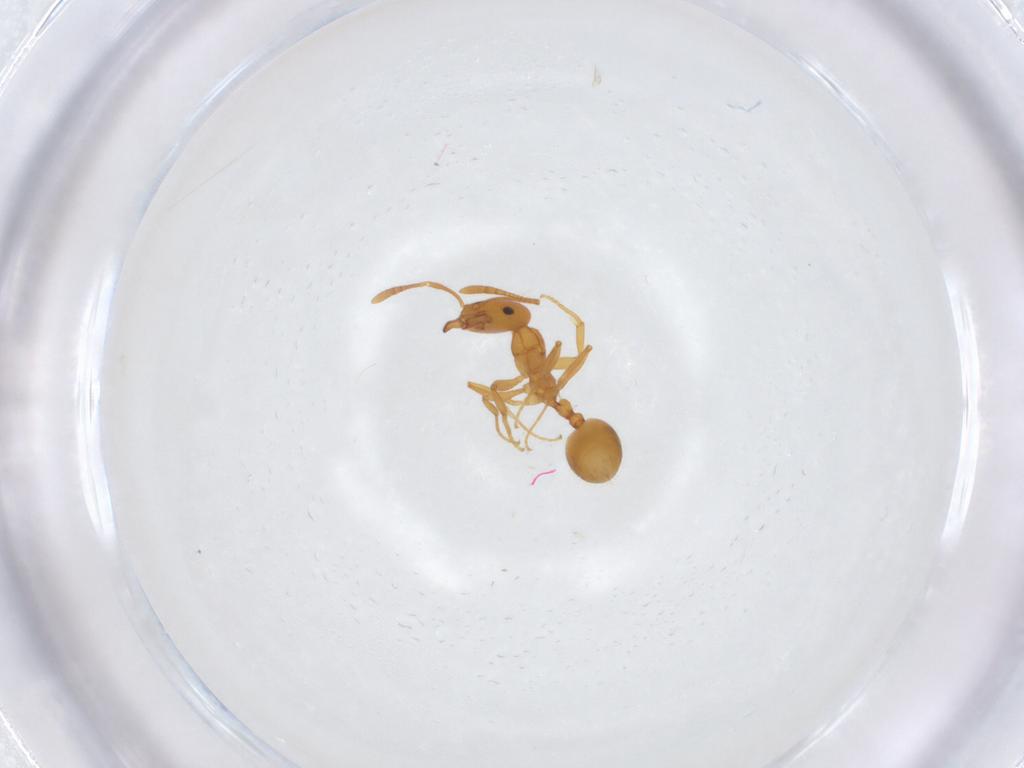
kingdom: Animalia
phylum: Arthropoda
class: Insecta
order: Hymenoptera
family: Formicidae
